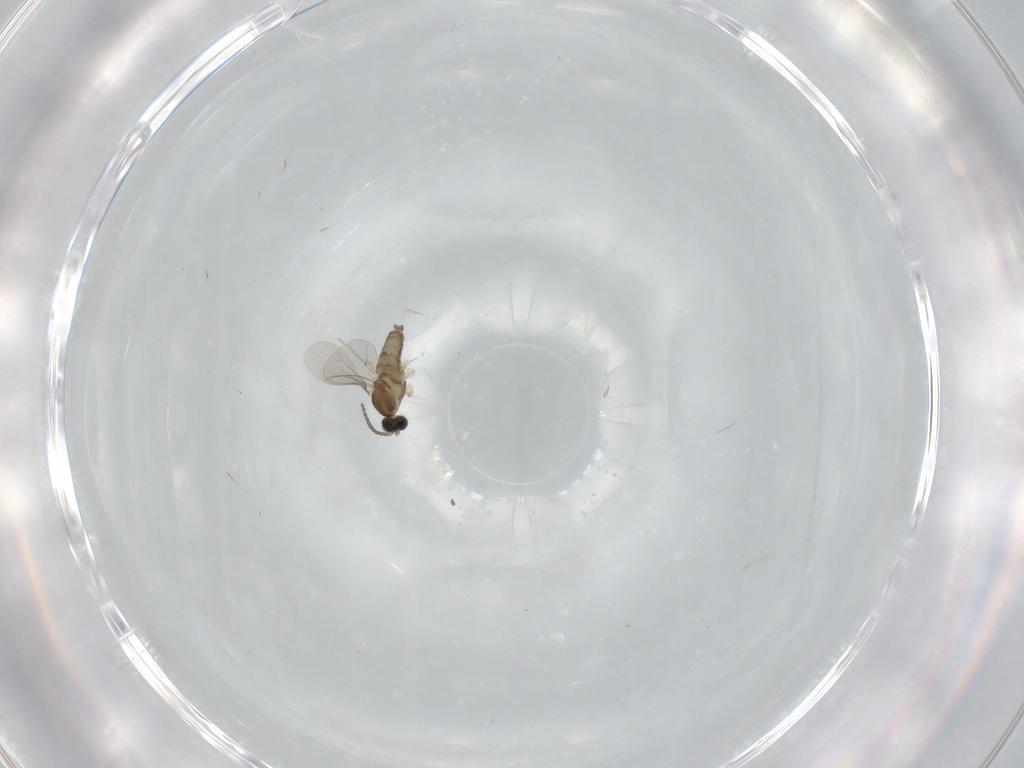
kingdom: Animalia
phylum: Arthropoda
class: Insecta
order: Diptera
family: Cecidomyiidae
